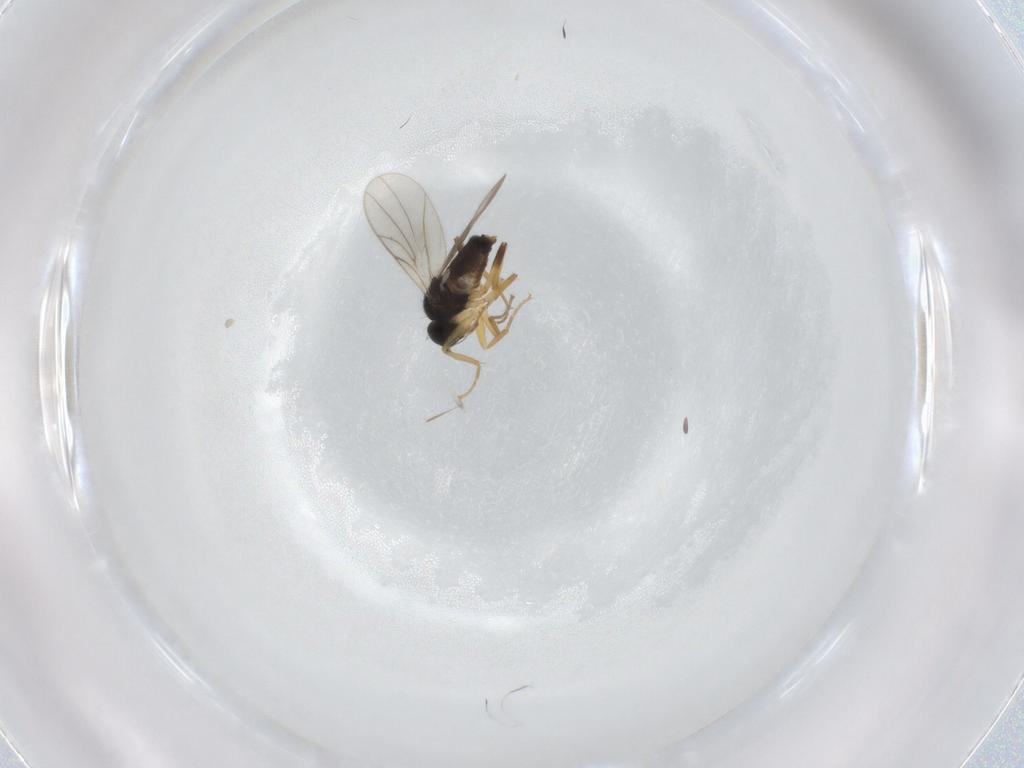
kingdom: Animalia
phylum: Arthropoda
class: Insecta
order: Diptera
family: Hybotidae
